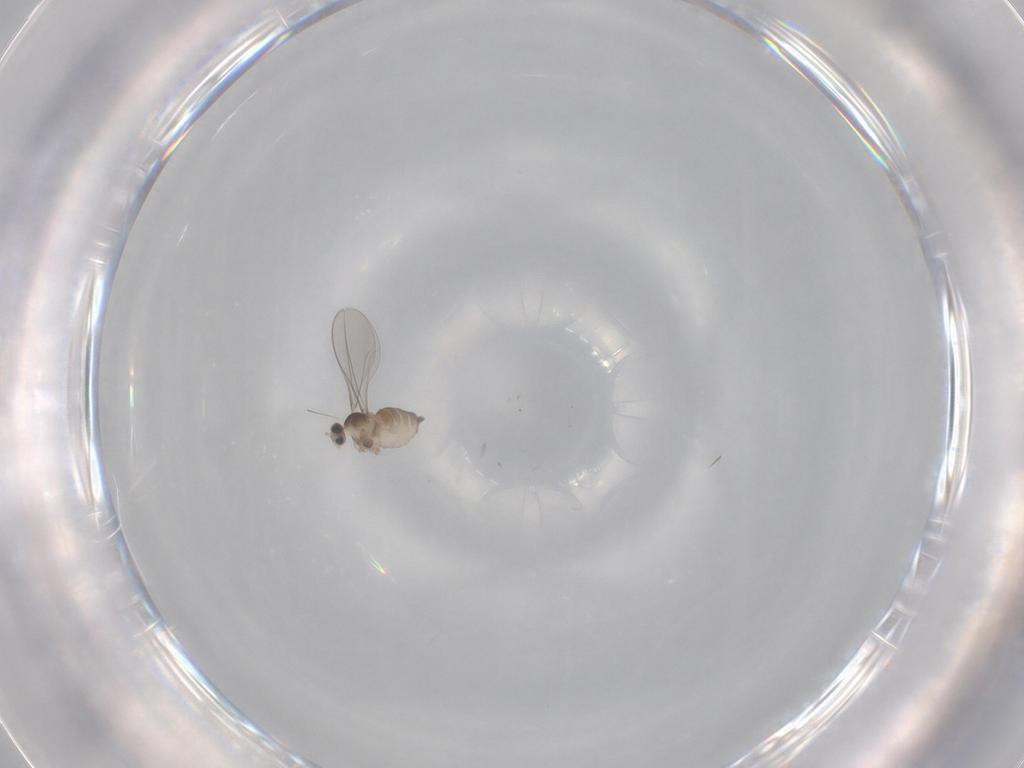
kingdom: Animalia
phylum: Arthropoda
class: Insecta
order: Diptera
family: Cecidomyiidae
